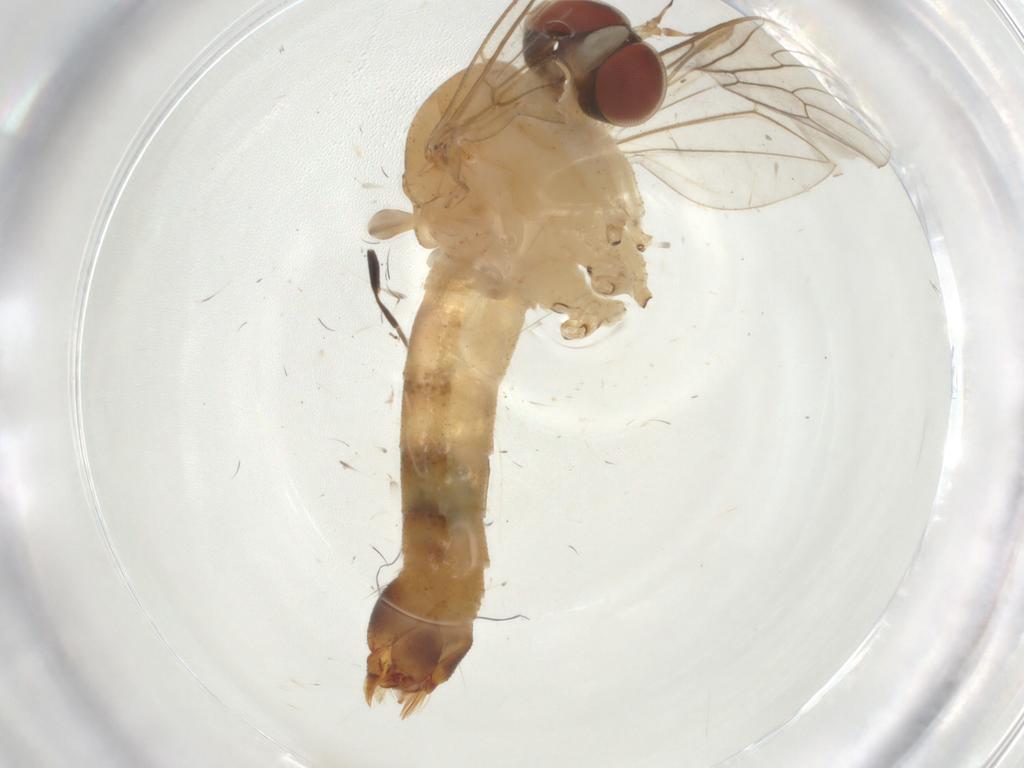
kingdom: Animalia
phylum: Arthropoda
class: Insecta
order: Diptera
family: Apsilocephalidae
